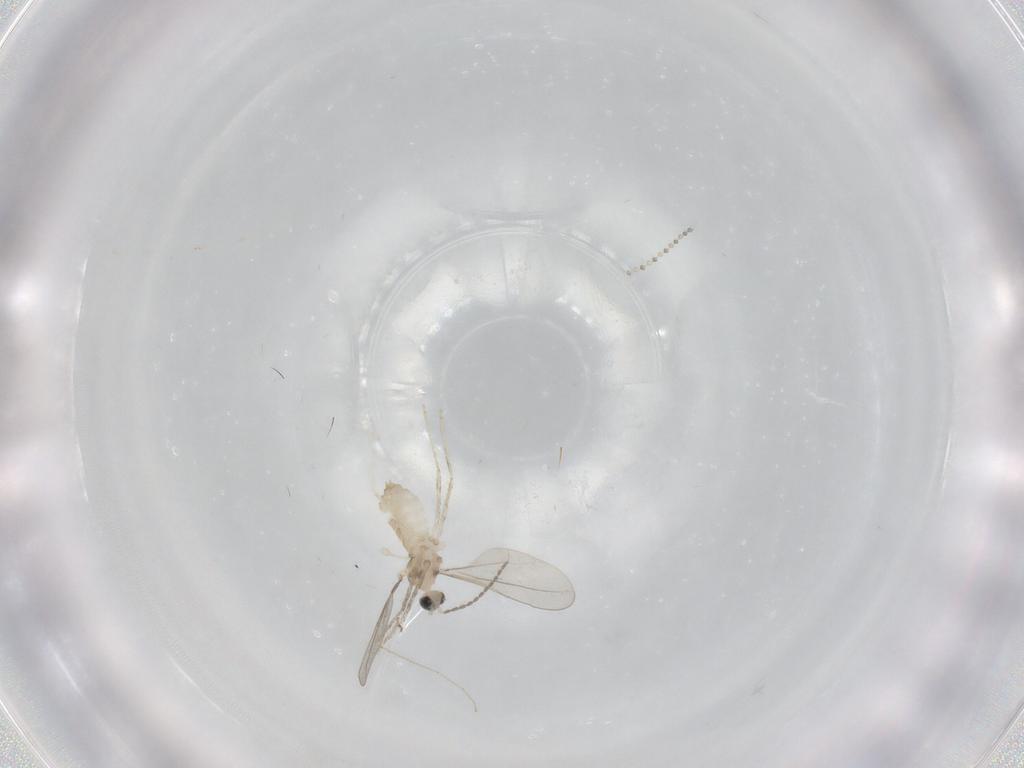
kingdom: Animalia
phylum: Arthropoda
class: Insecta
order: Diptera
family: Cecidomyiidae
